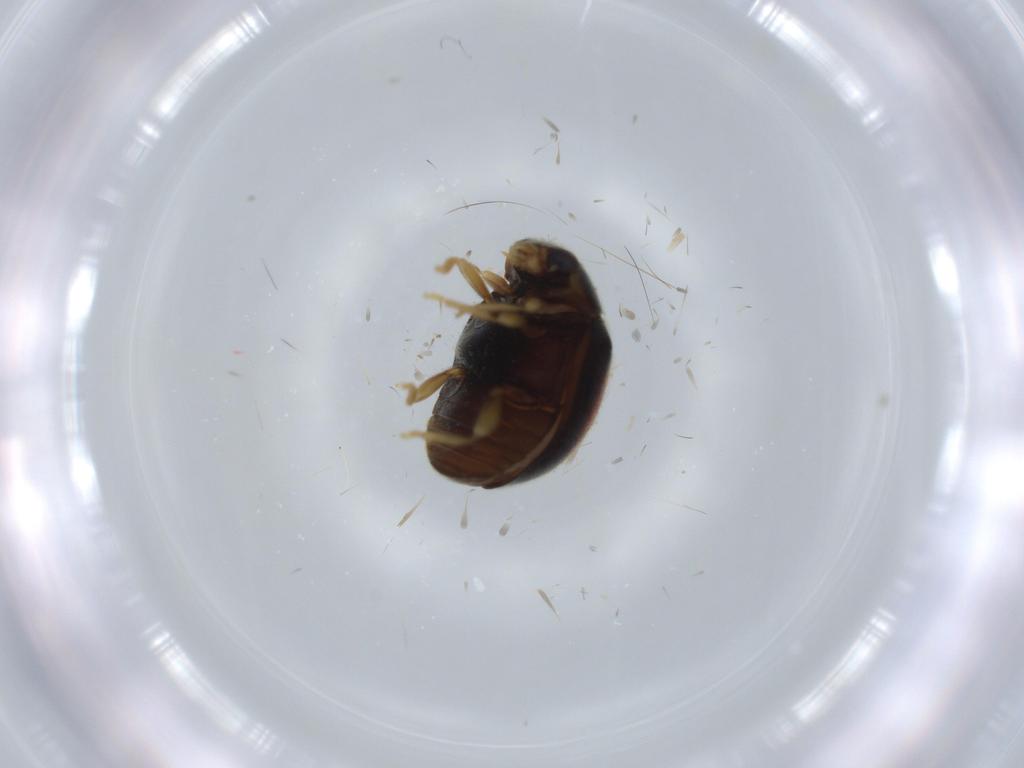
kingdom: Animalia
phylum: Arthropoda
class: Insecta
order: Coleoptera
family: Coccinellidae
